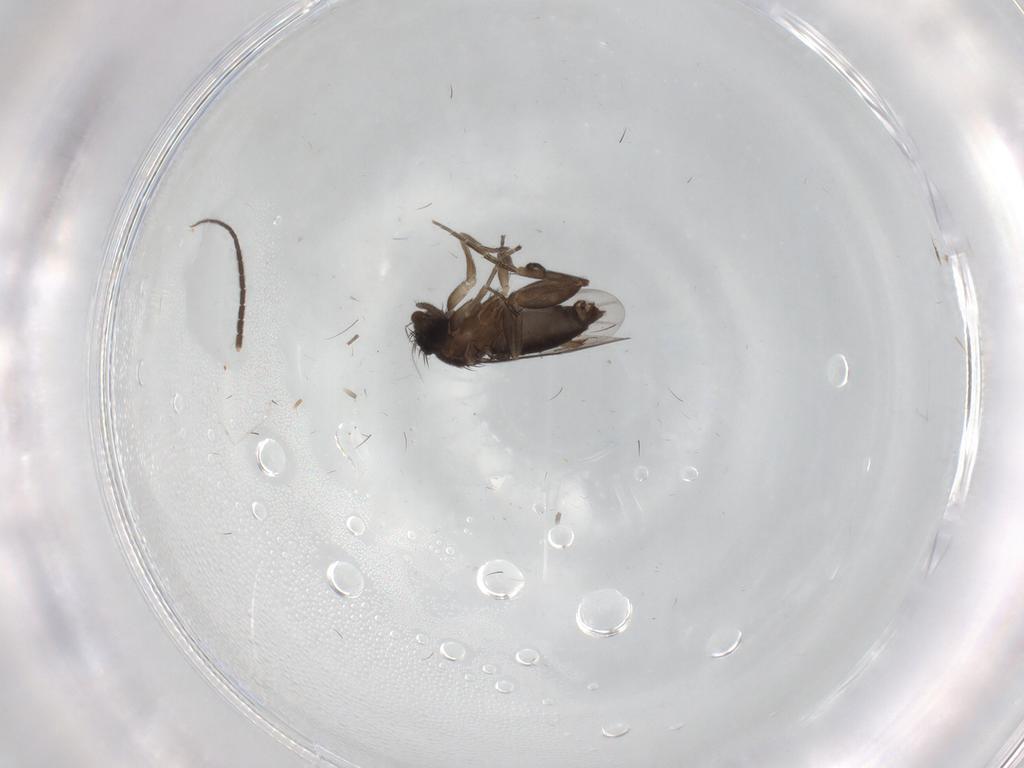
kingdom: Animalia
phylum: Arthropoda
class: Insecta
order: Diptera
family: Phoridae
